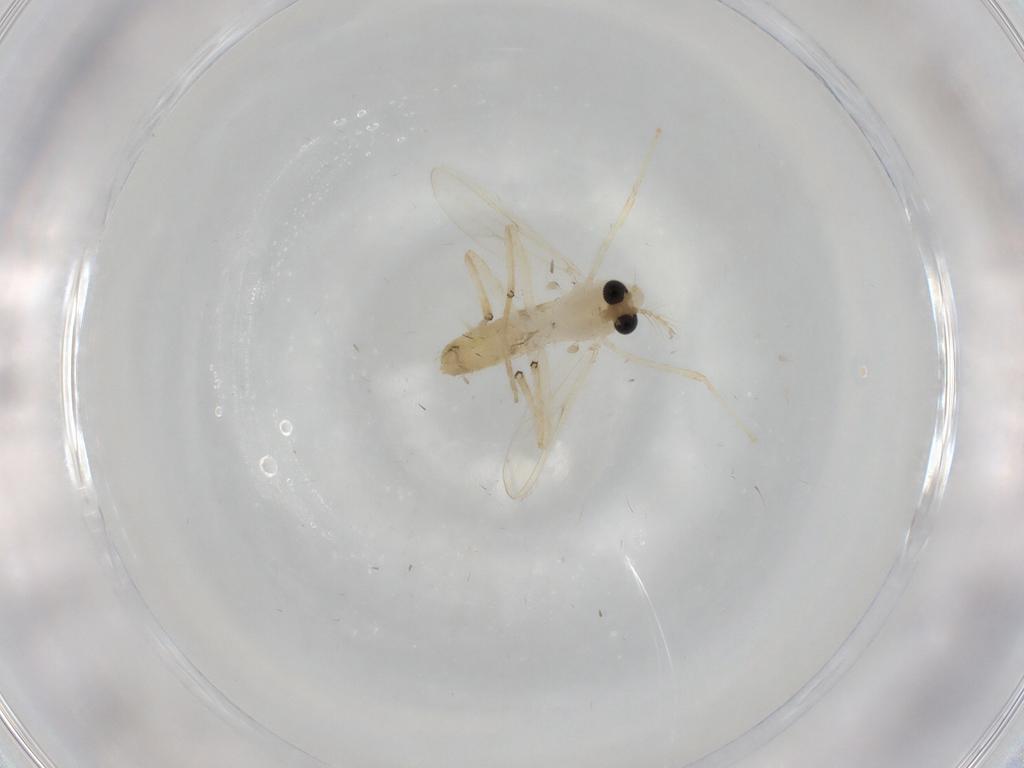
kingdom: Animalia
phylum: Arthropoda
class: Insecta
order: Diptera
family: Chironomidae
